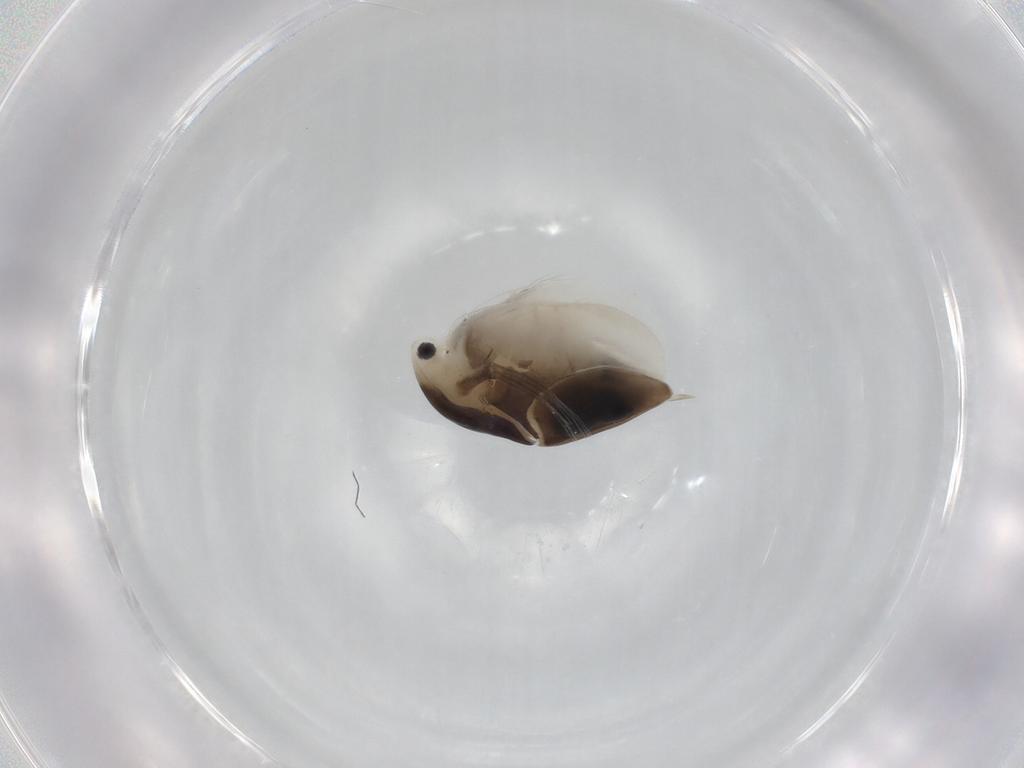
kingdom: Animalia
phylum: Arthropoda
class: Branchiopoda
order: Diplostraca
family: Daphniidae
